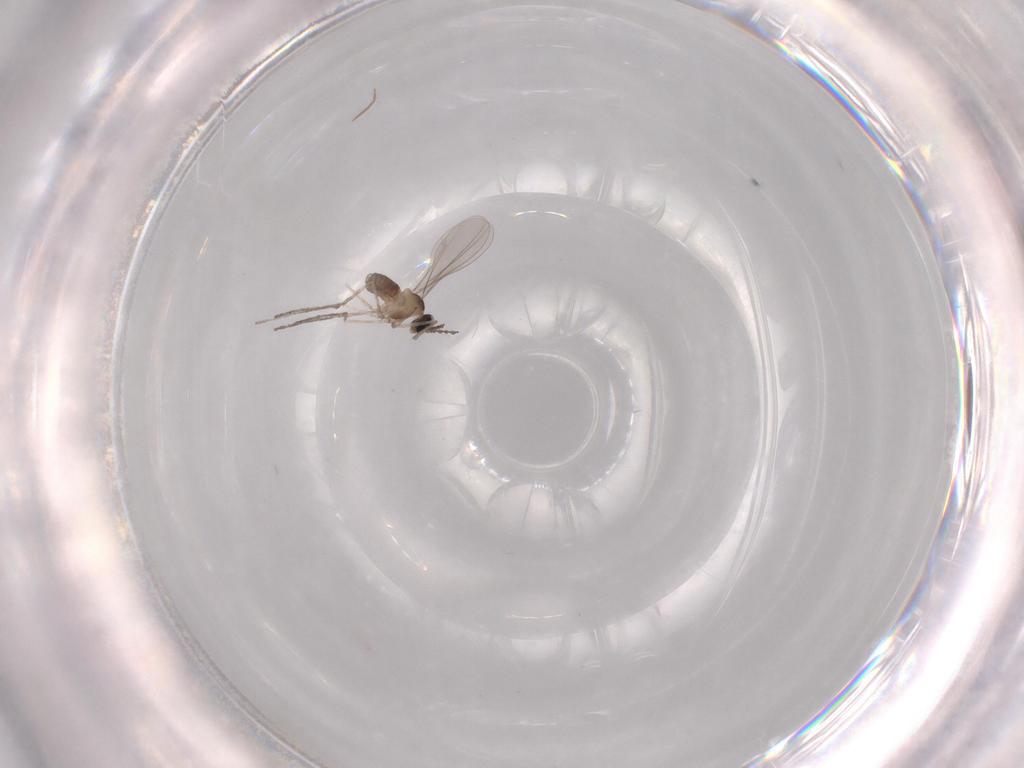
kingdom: Animalia
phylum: Arthropoda
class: Insecta
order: Diptera
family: Cecidomyiidae
